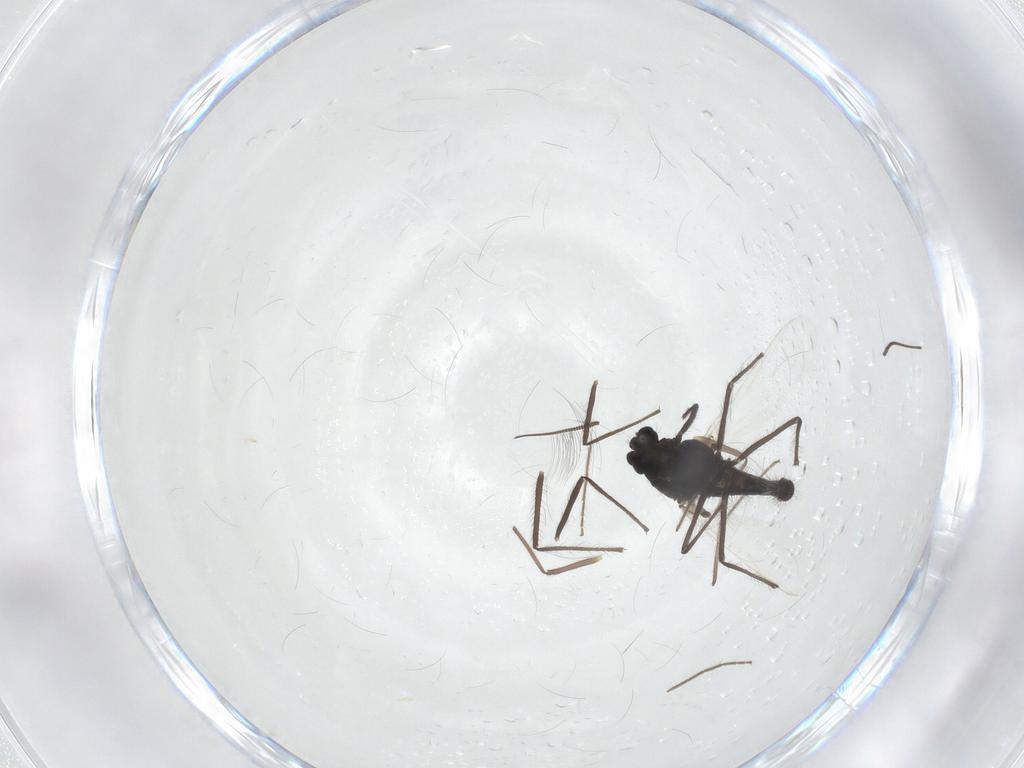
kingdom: Animalia
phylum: Arthropoda
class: Insecta
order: Diptera
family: Chironomidae
